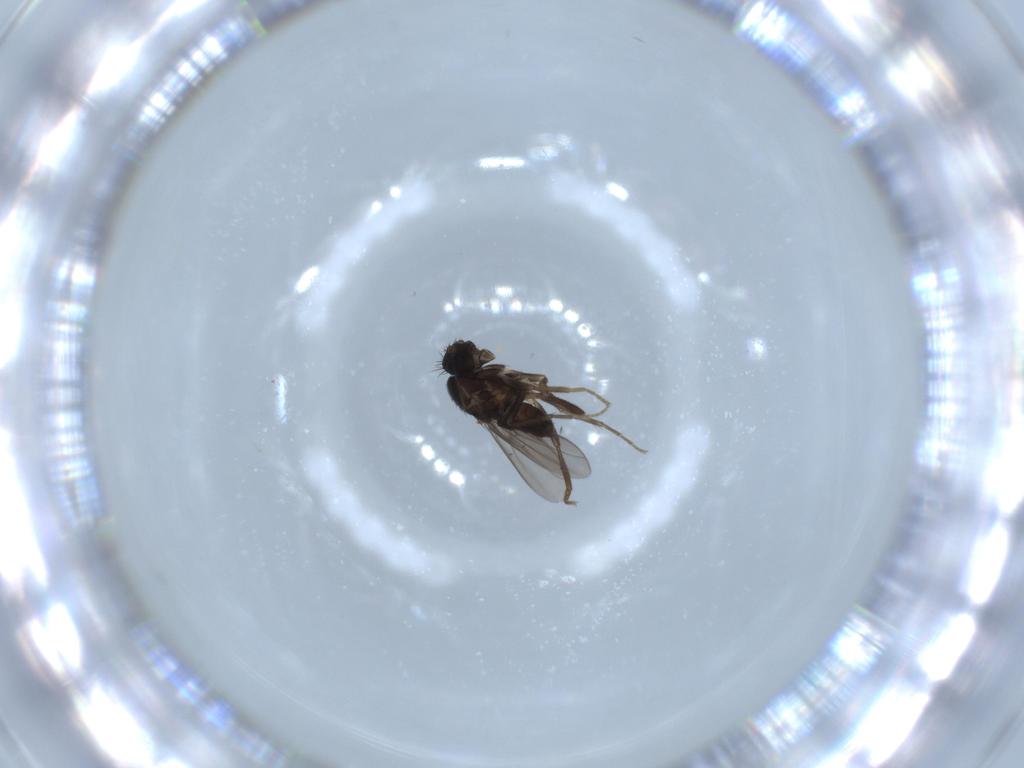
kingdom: Animalia
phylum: Arthropoda
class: Insecta
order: Diptera
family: Sphaeroceridae
